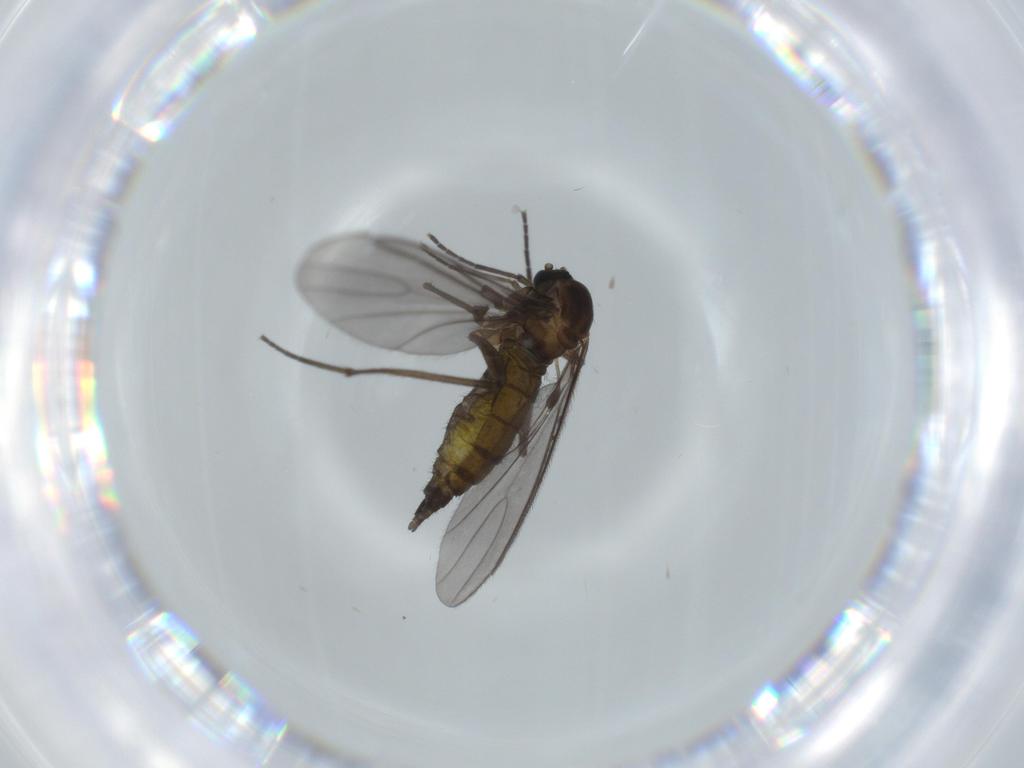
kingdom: Animalia
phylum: Arthropoda
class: Insecta
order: Diptera
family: Sciaridae
